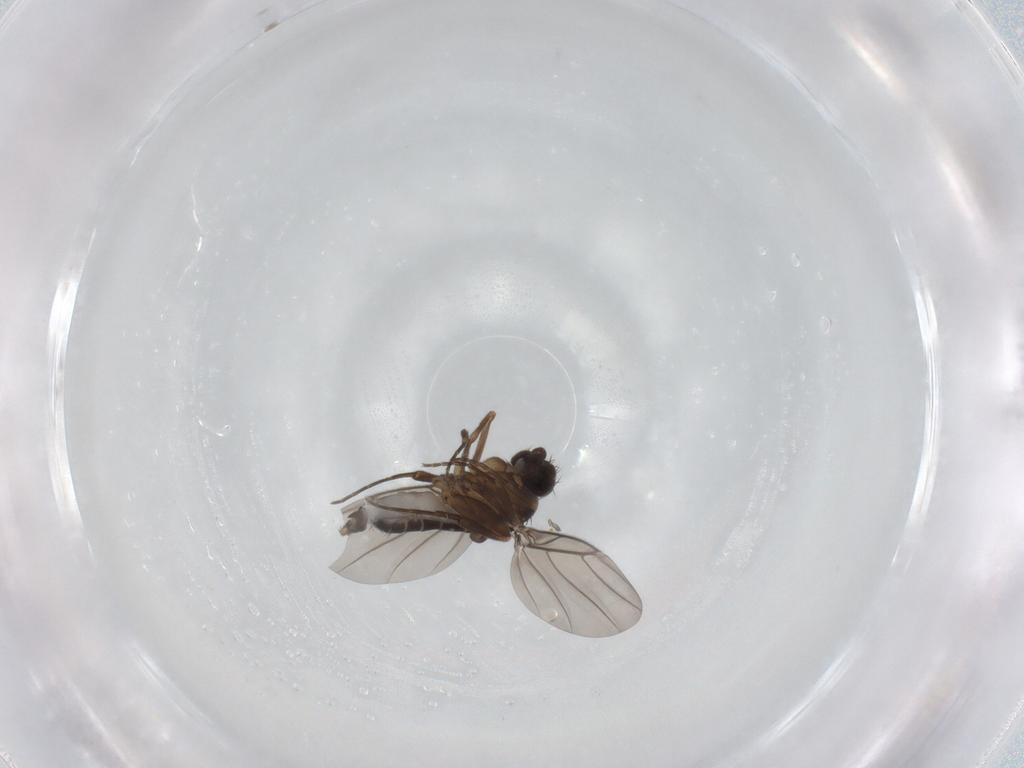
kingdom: Animalia
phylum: Arthropoda
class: Insecta
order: Diptera
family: Phoridae
